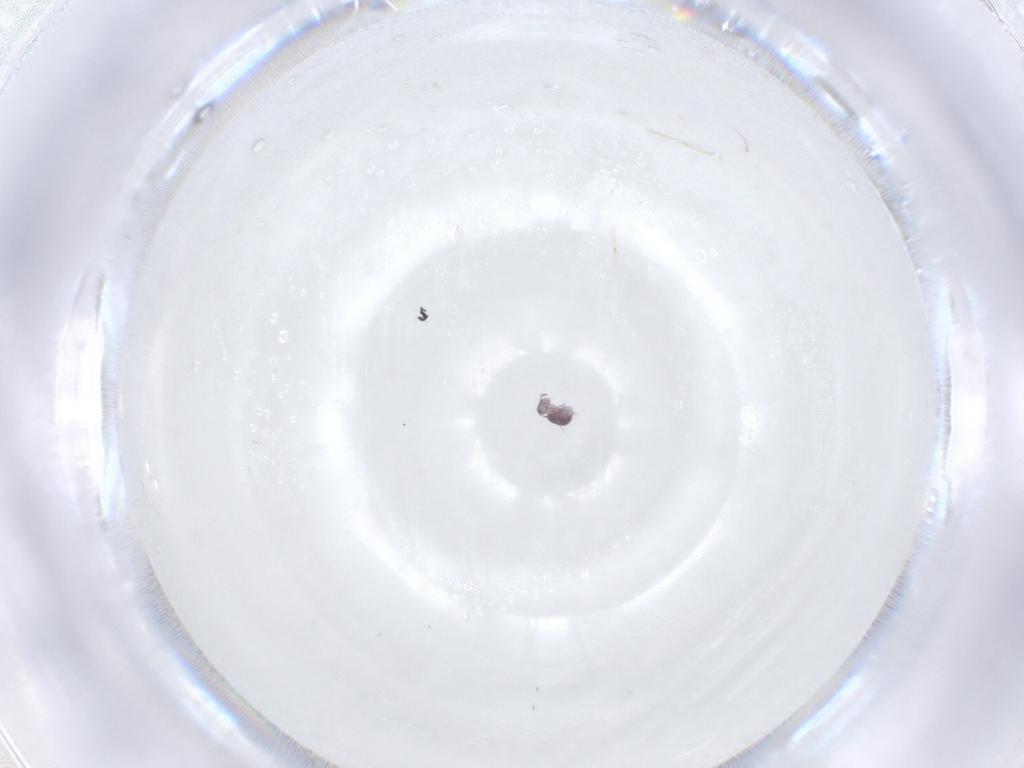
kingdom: Animalia
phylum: Arthropoda
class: Collembola
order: Symphypleona
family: Sminthurididae
